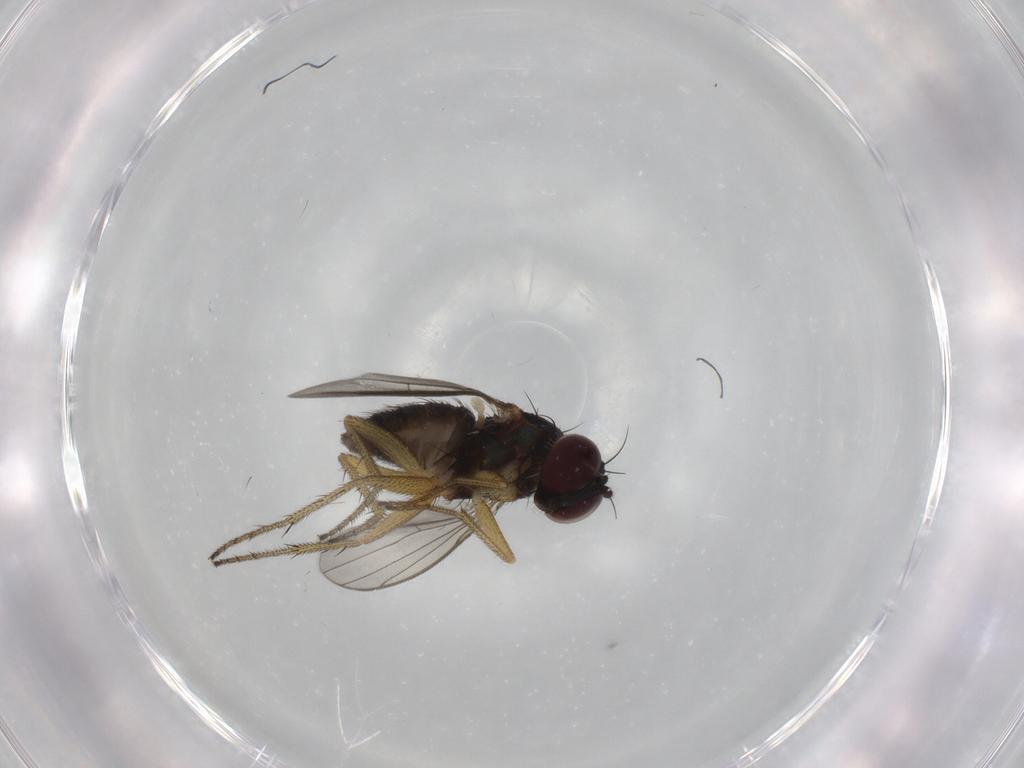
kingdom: Animalia
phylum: Arthropoda
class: Insecta
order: Diptera
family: Dolichopodidae
